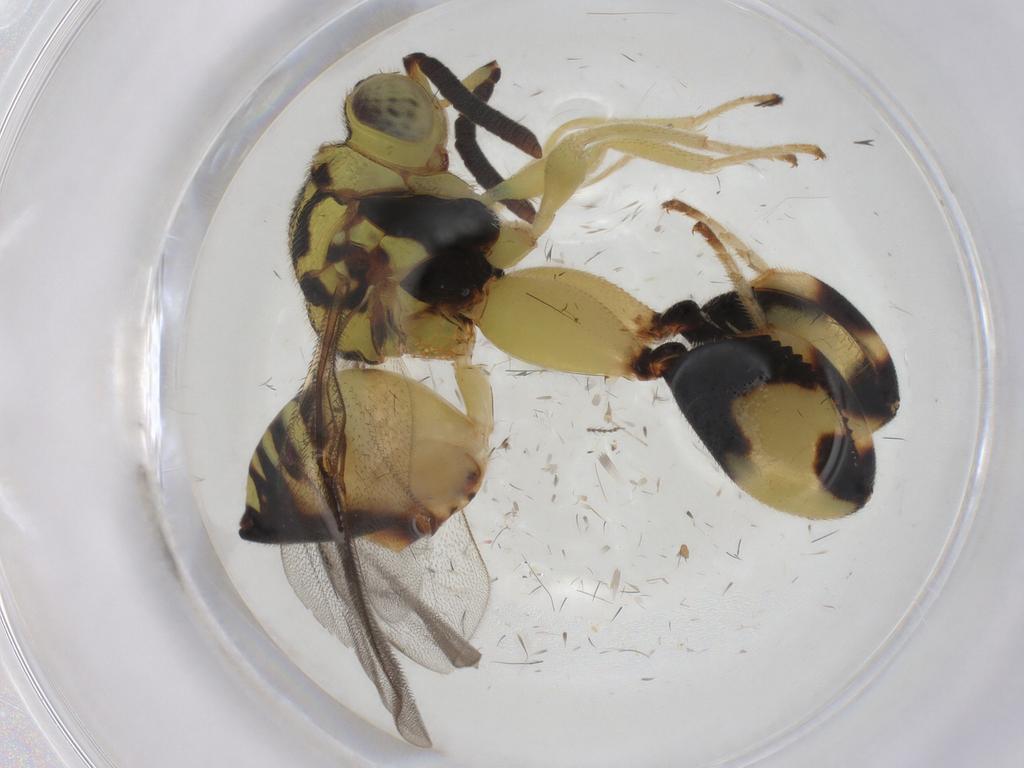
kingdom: Animalia
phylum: Arthropoda
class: Insecta
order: Hymenoptera
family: Chalcididae
